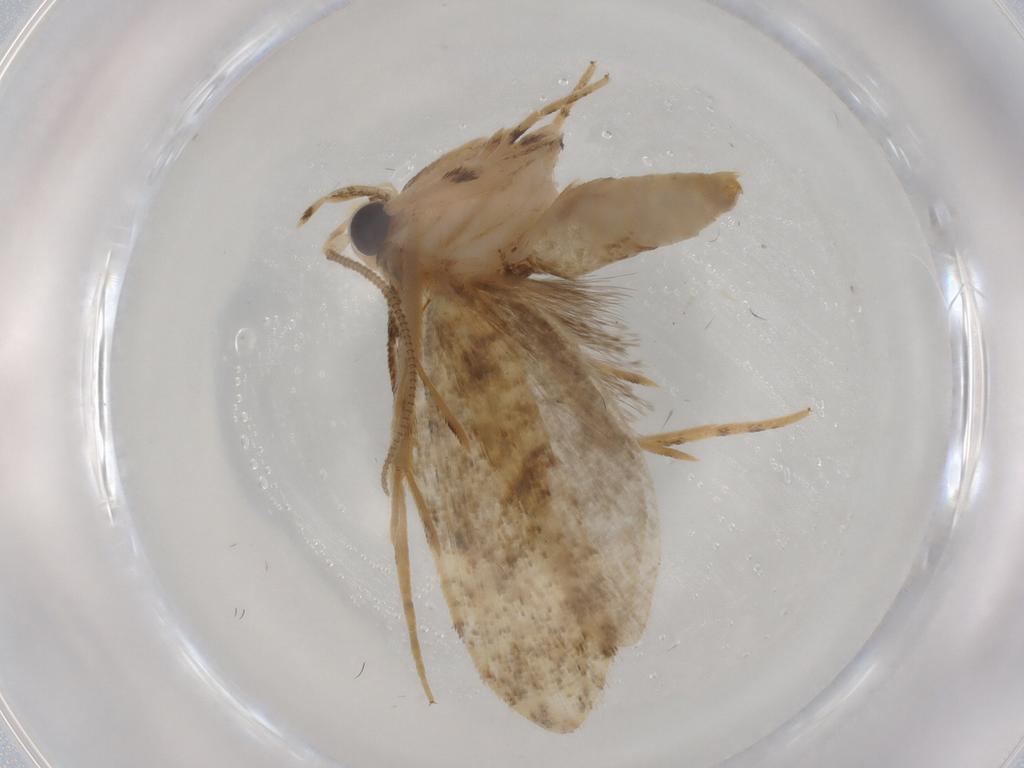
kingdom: Animalia
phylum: Arthropoda
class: Insecta
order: Lepidoptera
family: Tineidae
